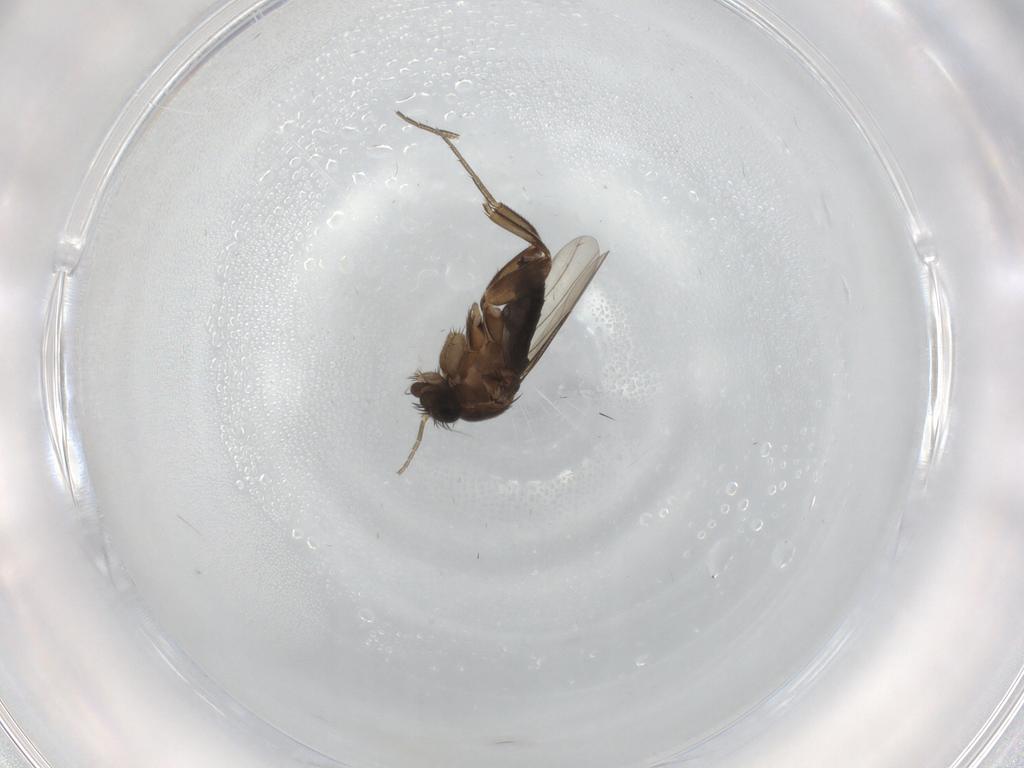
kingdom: Animalia
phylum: Arthropoda
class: Insecta
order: Diptera
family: Phoridae
